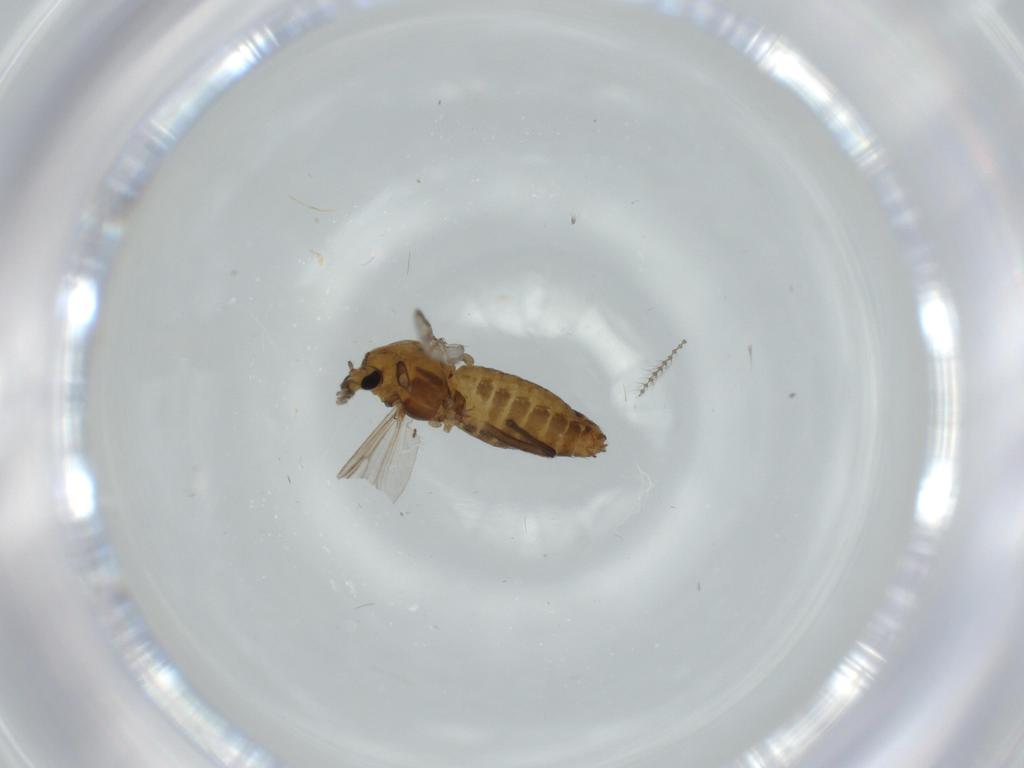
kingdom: Animalia
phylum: Arthropoda
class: Insecta
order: Diptera
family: Chironomidae
